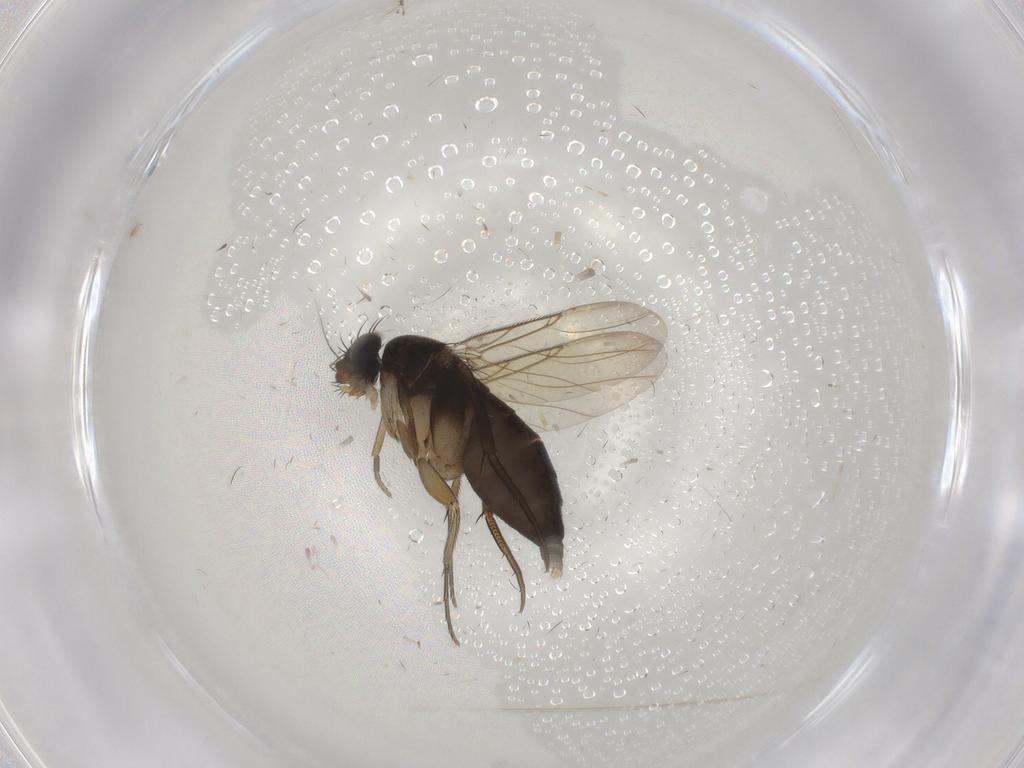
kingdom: Animalia
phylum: Arthropoda
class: Insecta
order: Diptera
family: Phoridae
